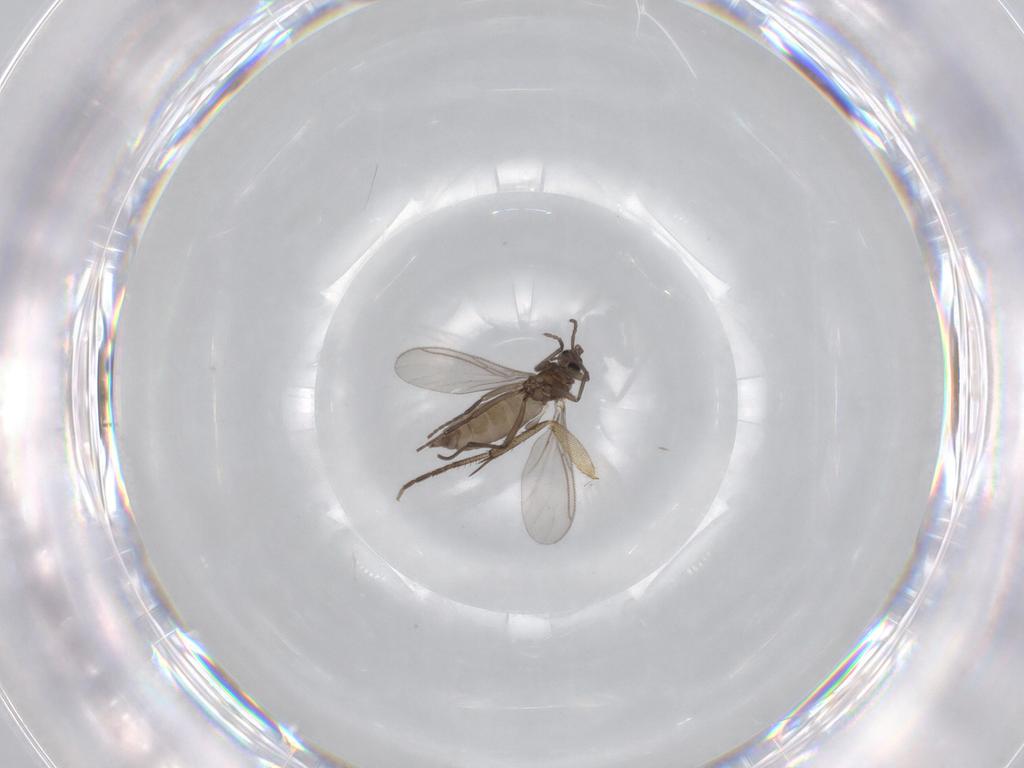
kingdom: Animalia
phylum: Arthropoda
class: Insecta
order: Diptera
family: Sciaridae
